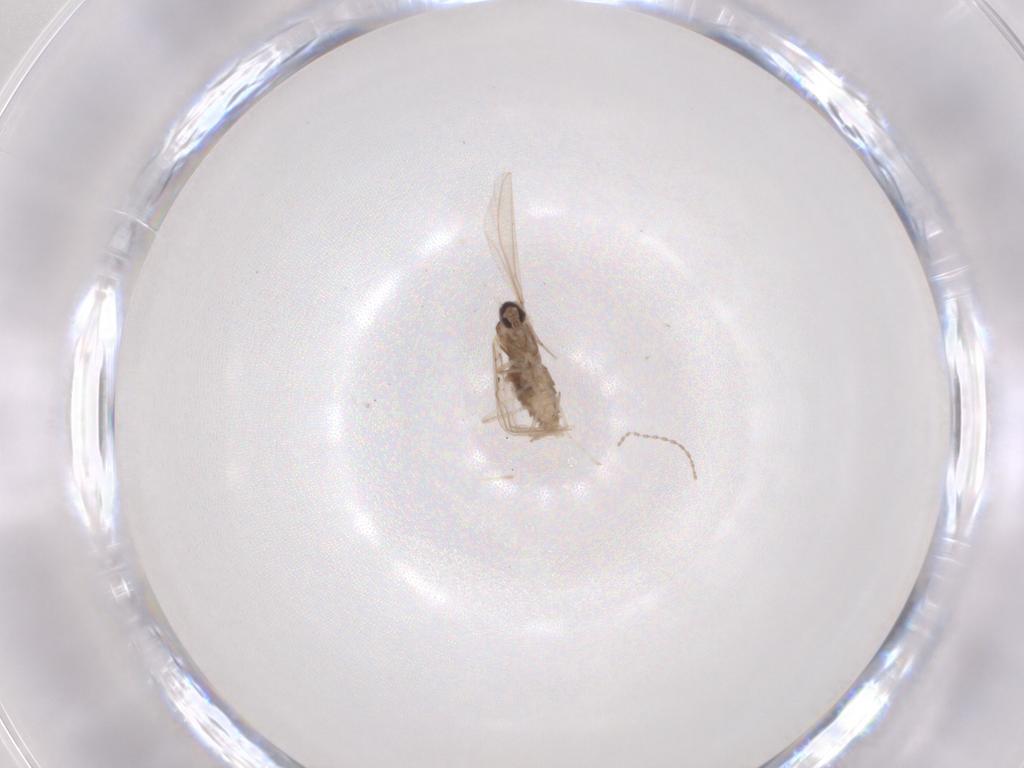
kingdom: Animalia
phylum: Arthropoda
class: Insecta
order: Diptera
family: Cecidomyiidae
